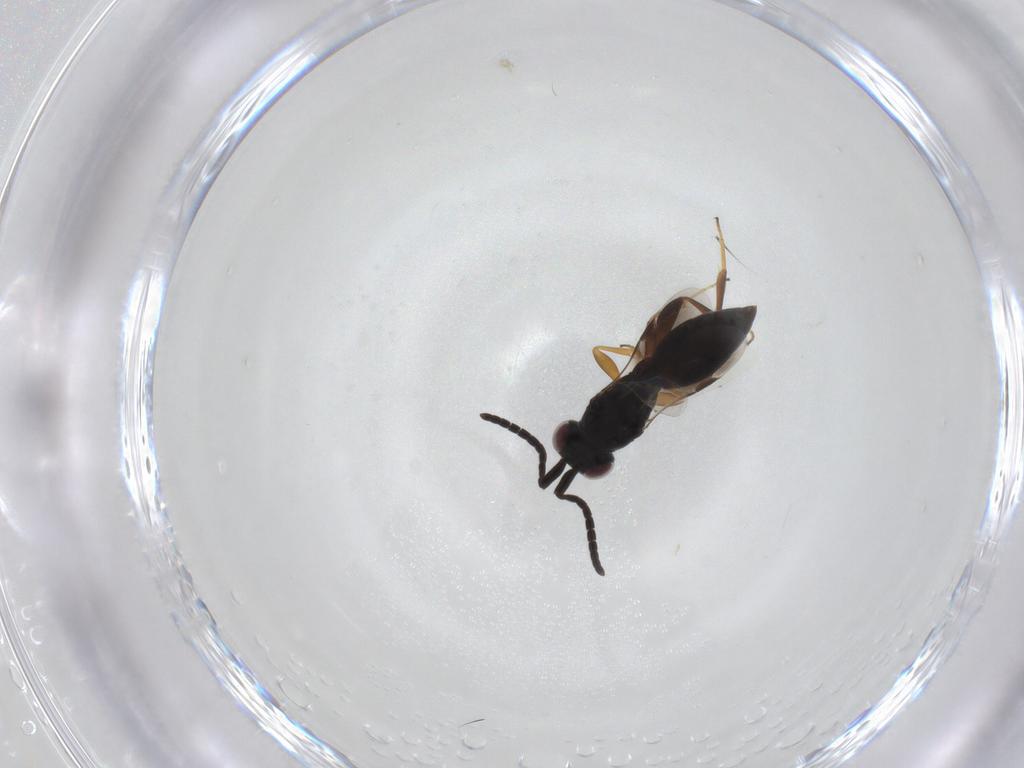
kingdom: Animalia
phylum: Arthropoda
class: Insecta
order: Hymenoptera
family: Megaspilidae
